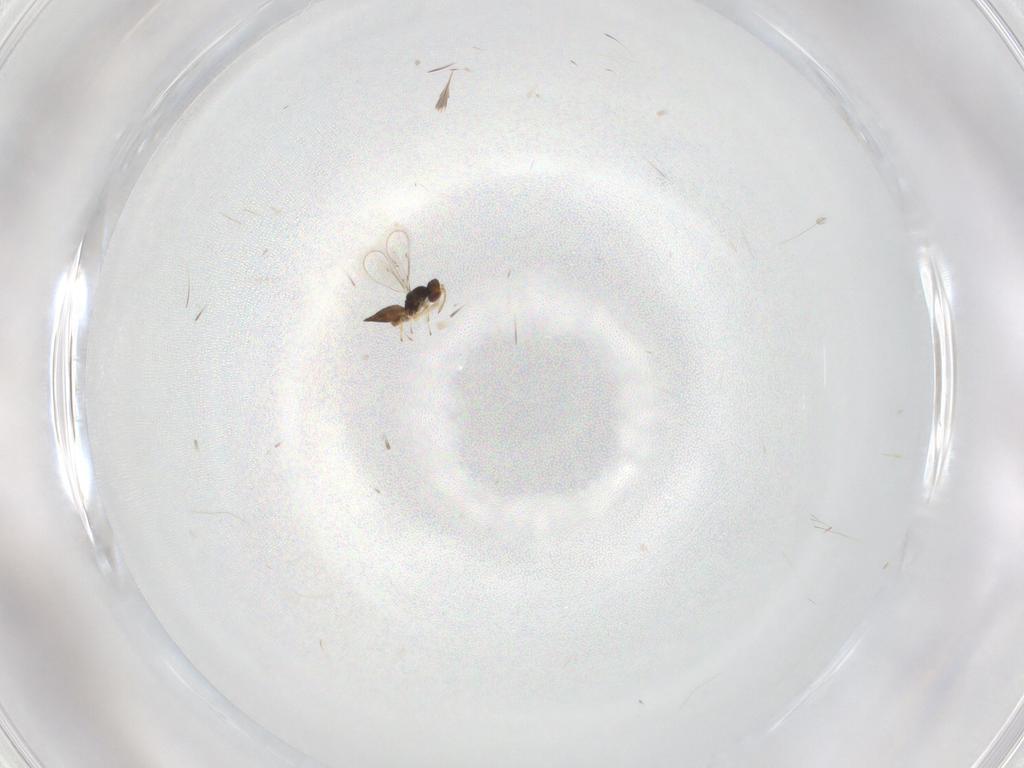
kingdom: Animalia
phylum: Arthropoda
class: Insecta
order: Hymenoptera
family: Eulophidae
